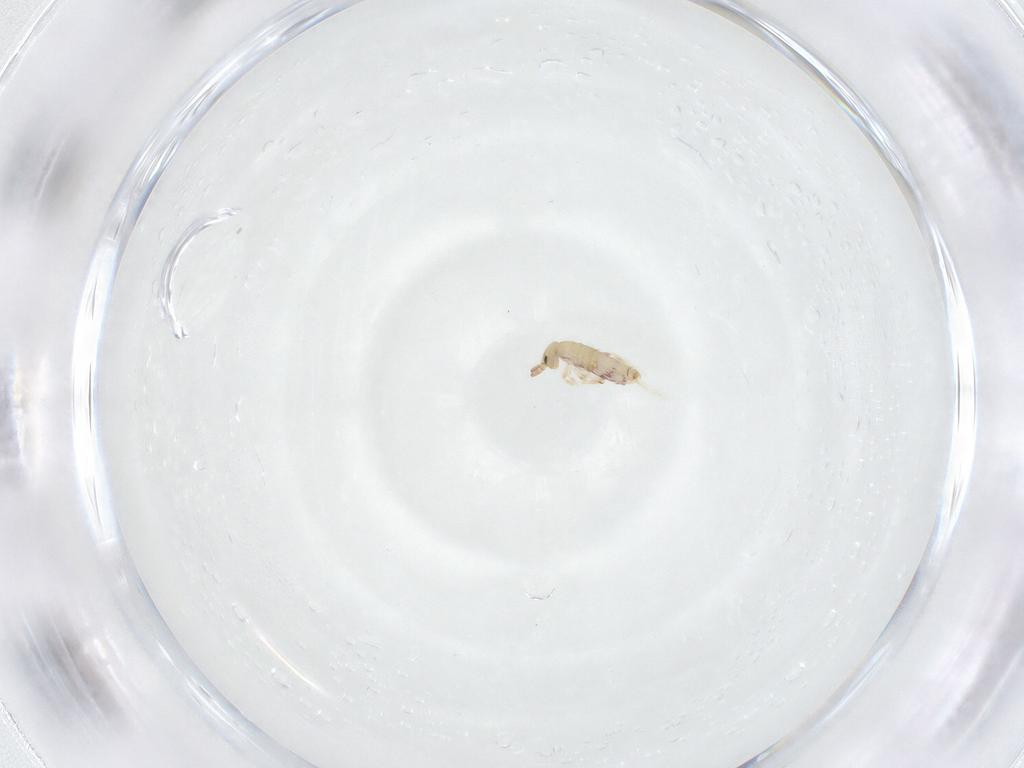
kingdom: Animalia
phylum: Arthropoda
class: Collembola
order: Entomobryomorpha
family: Entomobryidae
